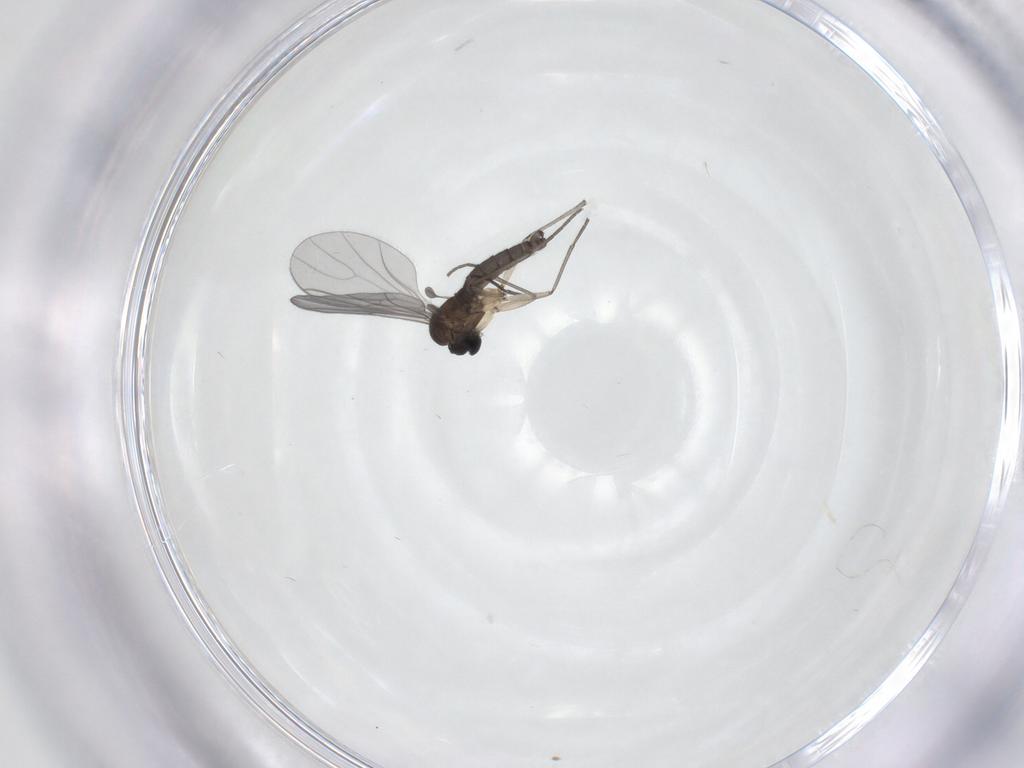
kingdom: Animalia
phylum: Arthropoda
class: Insecta
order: Diptera
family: Sciaridae
